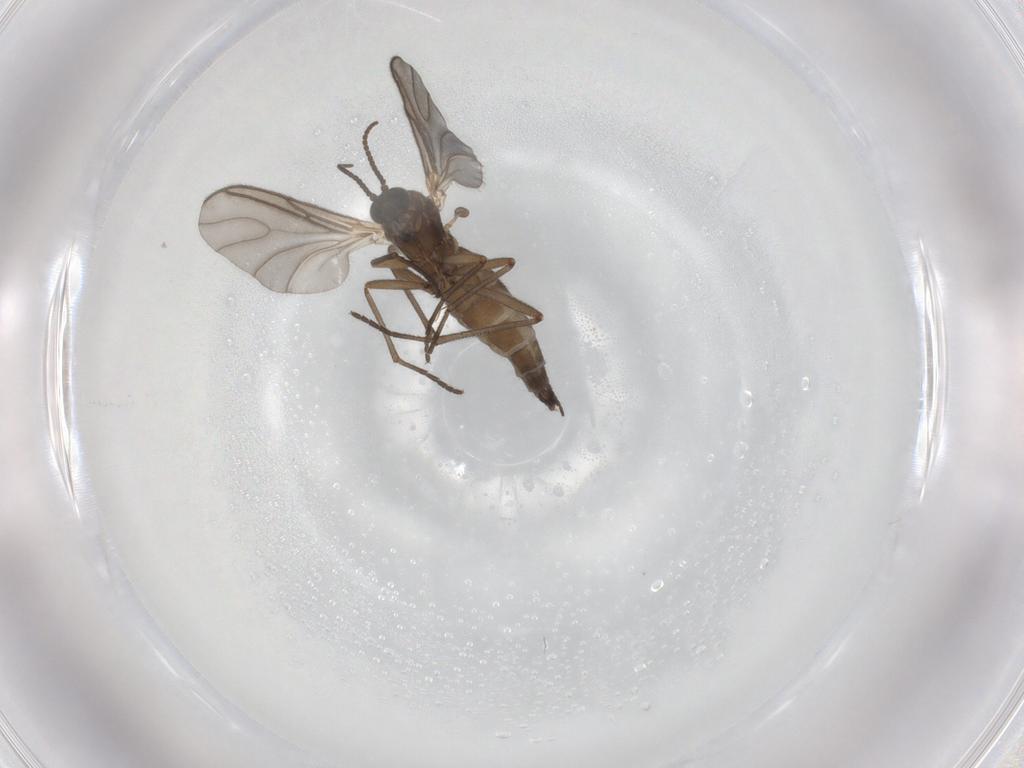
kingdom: Animalia
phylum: Arthropoda
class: Insecta
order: Diptera
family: Sciaridae
